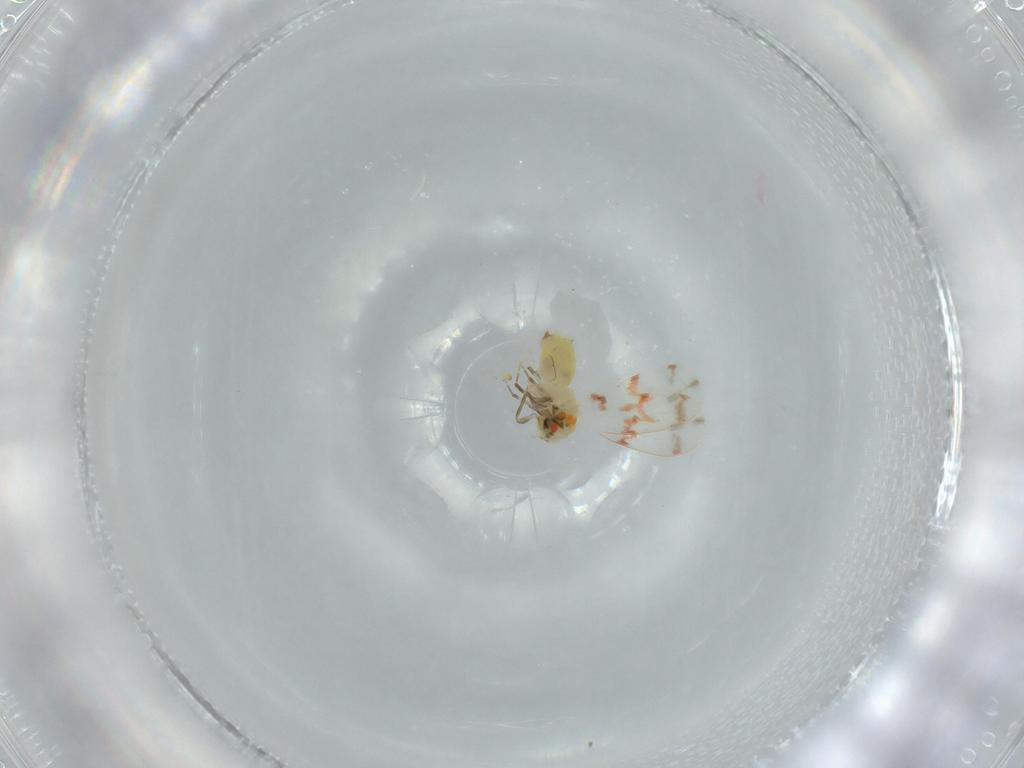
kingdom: Animalia
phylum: Arthropoda
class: Insecta
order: Hemiptera
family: Aleyrodidae
